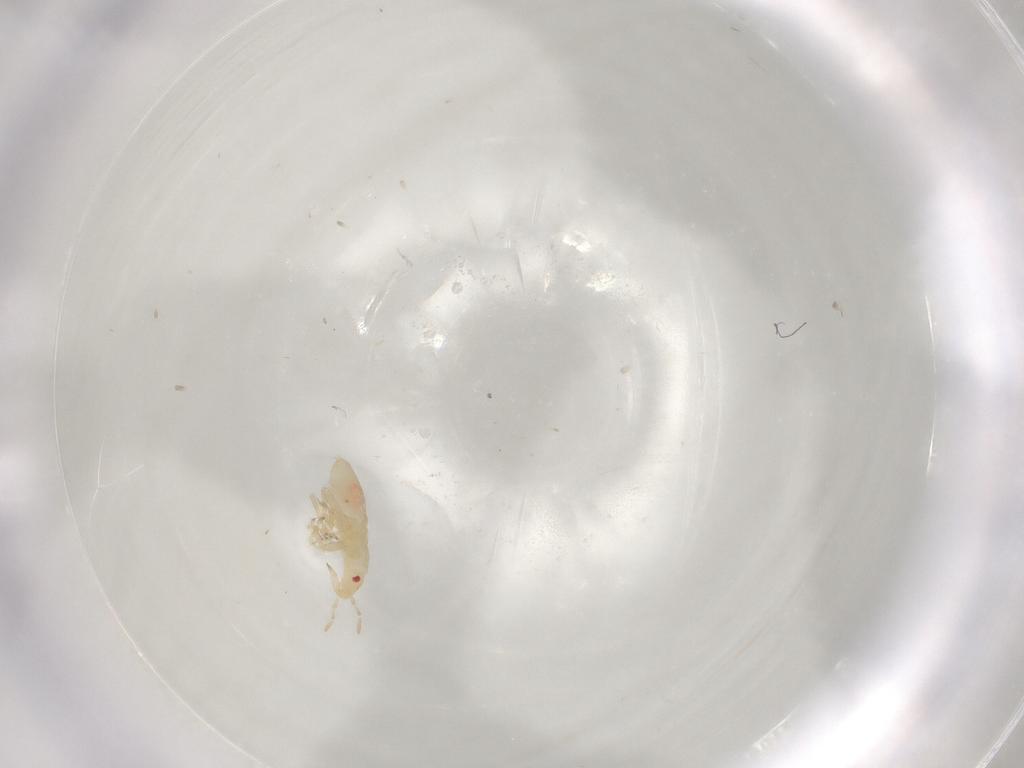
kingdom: Animalia
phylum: Arthropoda
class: Insecta
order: Hemiptera
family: Anthocoridae
